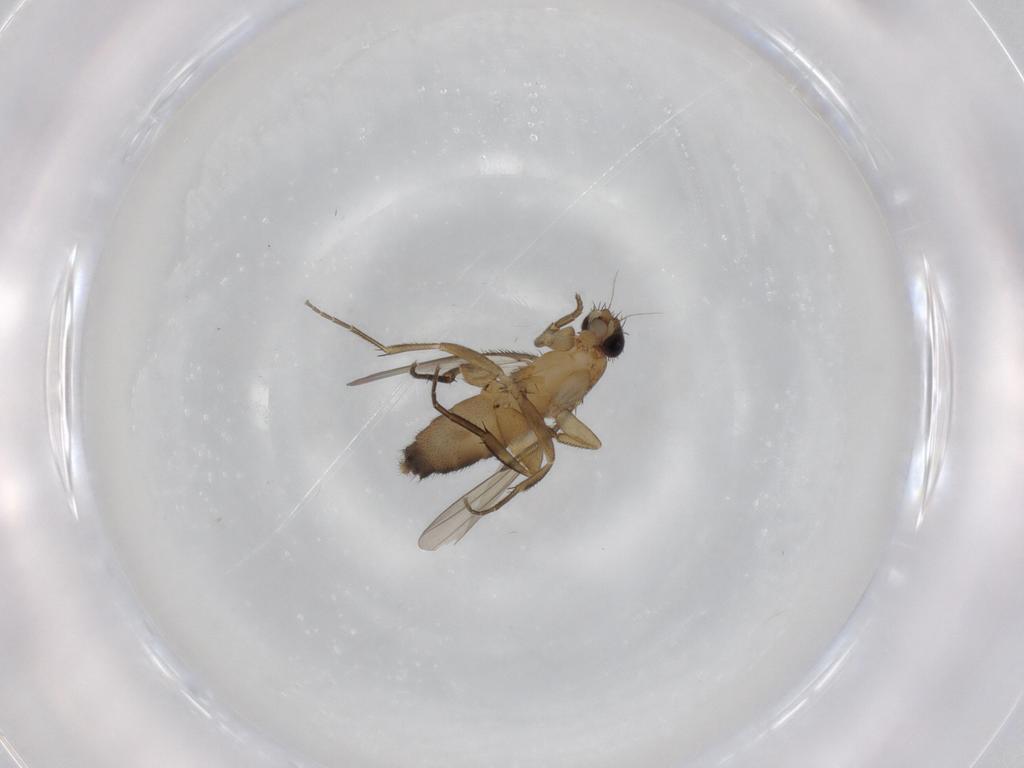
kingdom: Animalia
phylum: Arthropoda
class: Insecta
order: Diptera
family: Phoridae
